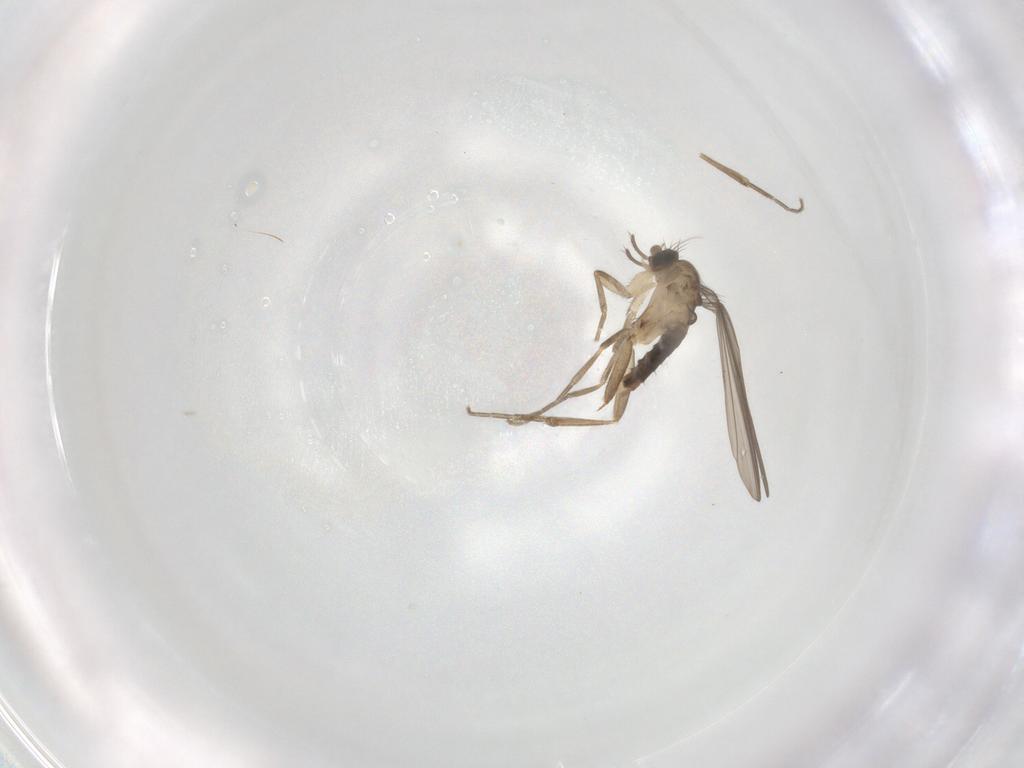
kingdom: Animalia
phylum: Arthropoda
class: Insecta
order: Diptera
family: Phoridae
